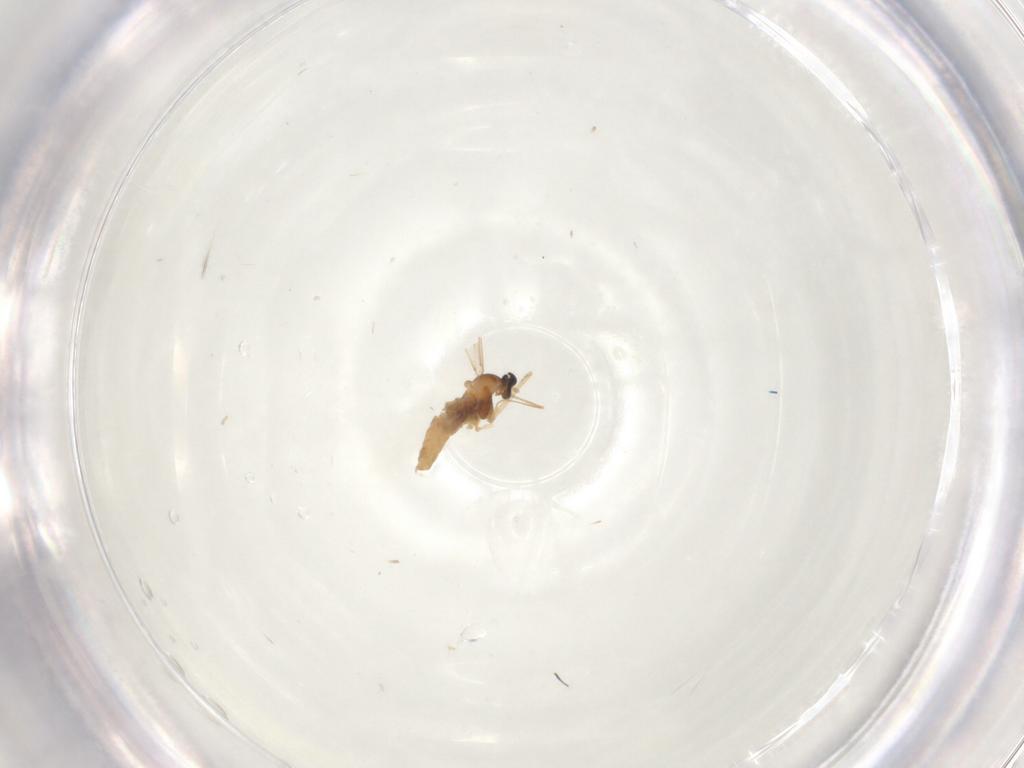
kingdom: Animalia
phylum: Arthropoda
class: Insecta
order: Diptera
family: Cecidomyiidae
